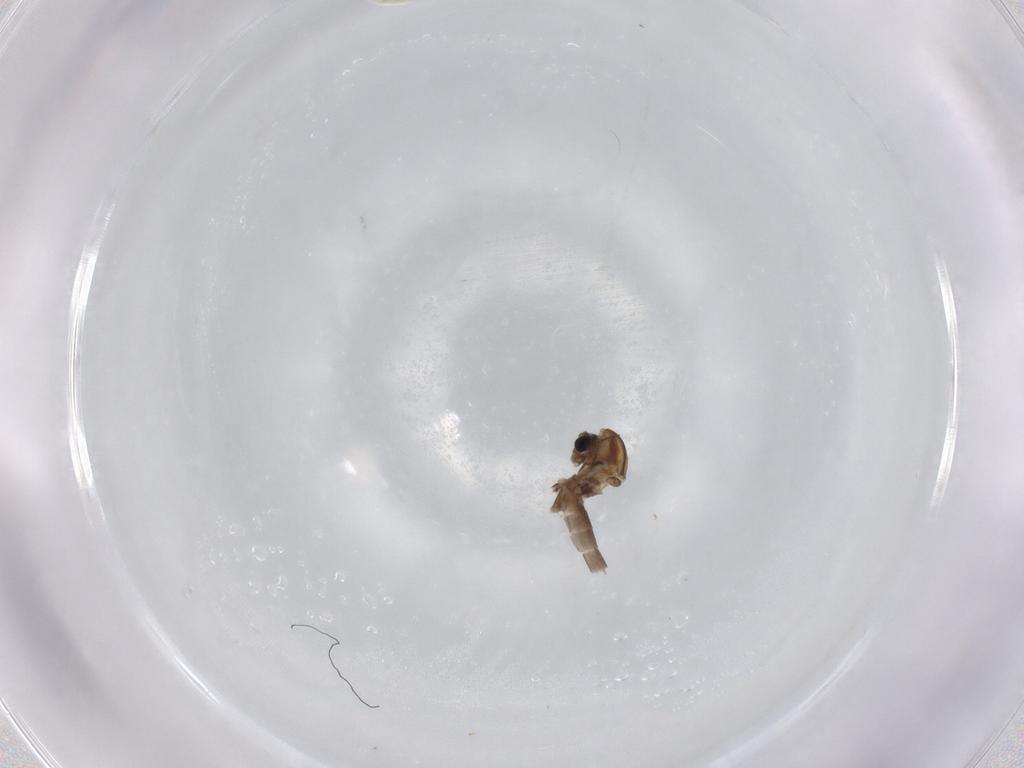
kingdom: Animalia
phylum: Arthropoda
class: Insecta
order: Diptera
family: Chironomidae
